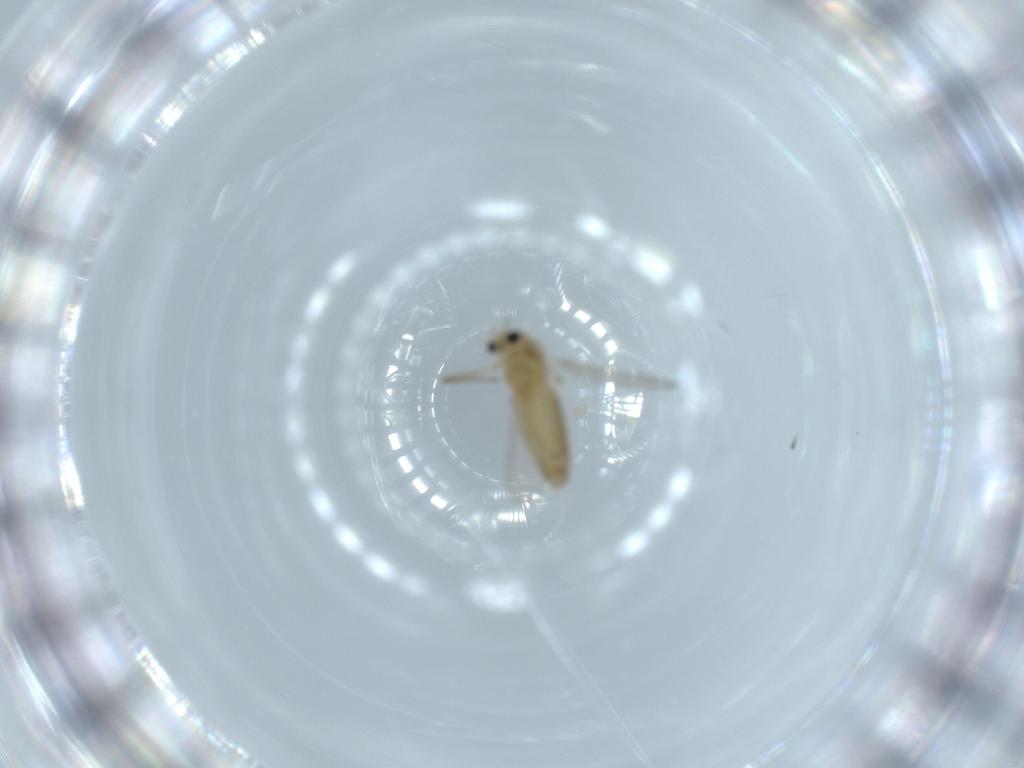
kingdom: Animalia
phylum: Arthropoda
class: Insecta
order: Diptera
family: Chironomidae
